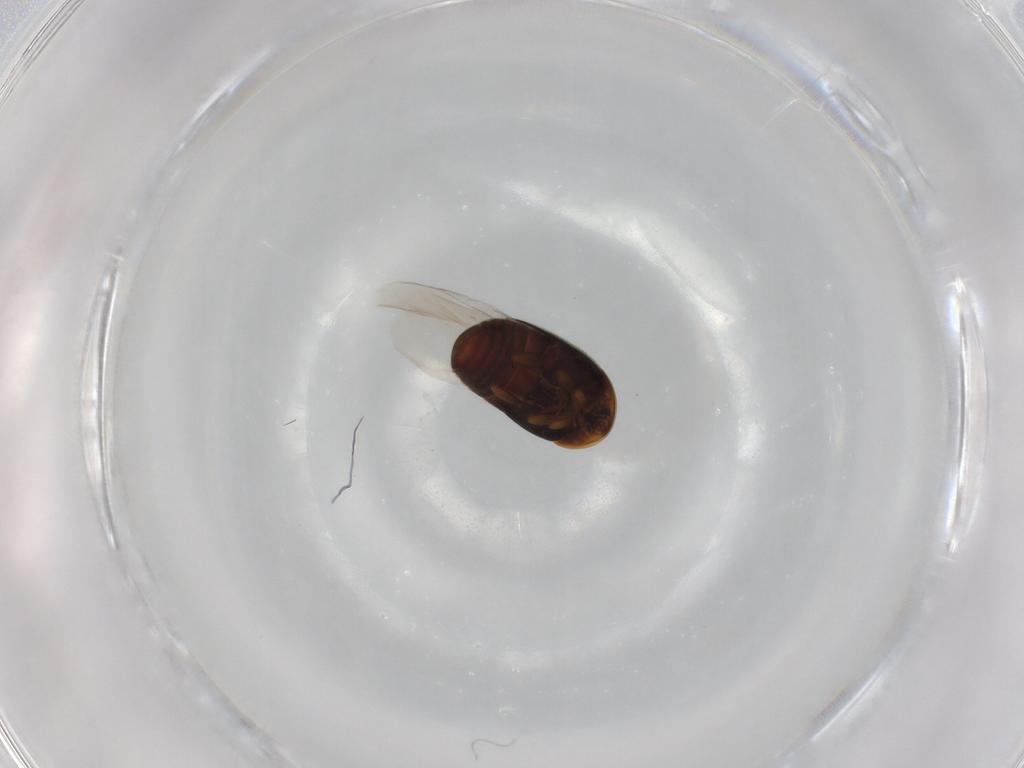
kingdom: Animalia
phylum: Arthropoda
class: Insecta
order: Coleoptera
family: Corylophidae
